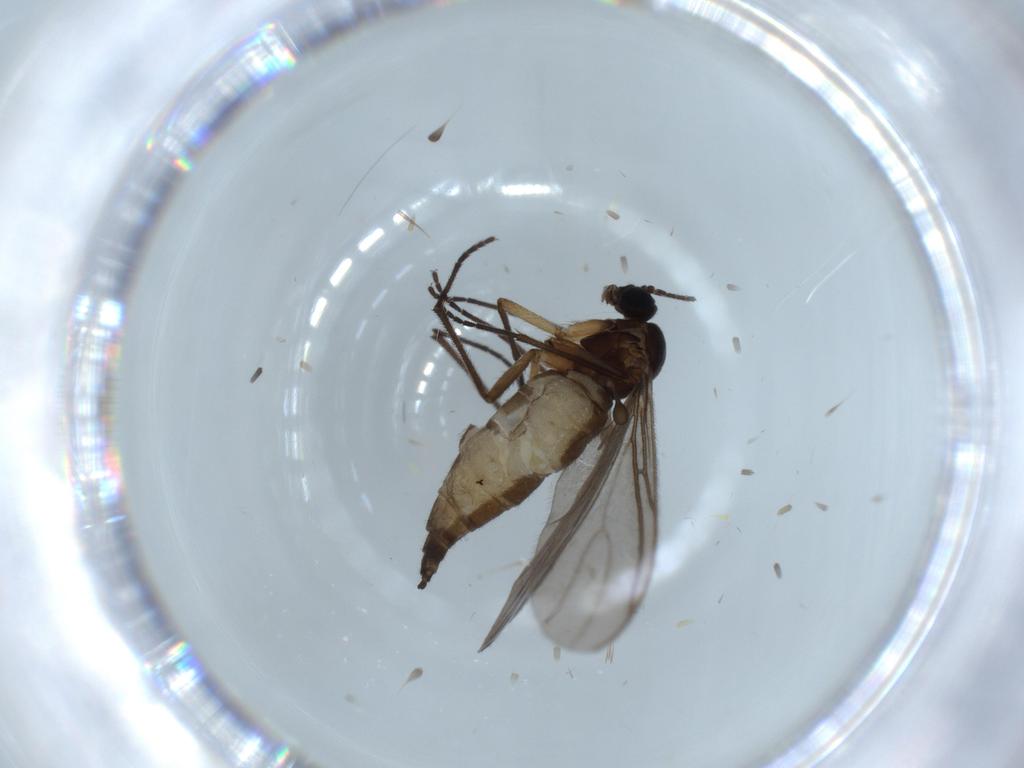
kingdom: Animalia
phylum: Arthropoda
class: Insecta
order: Diptera
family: Sciaridae
